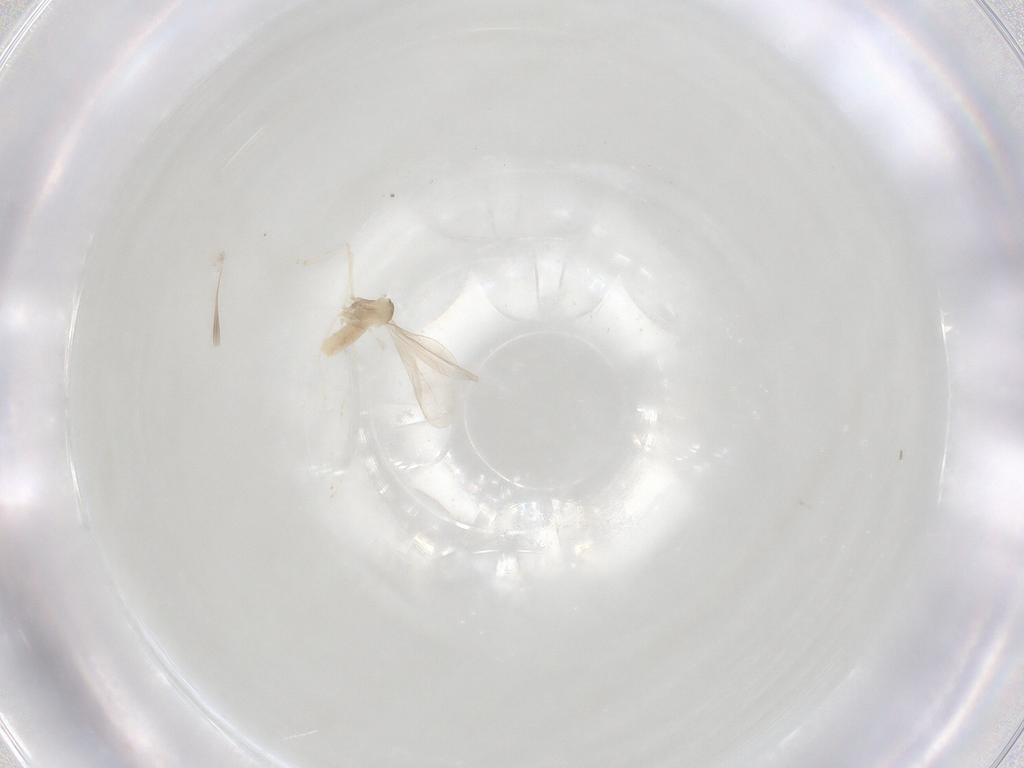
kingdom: Animalia
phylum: Arthropoda
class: Insecta
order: Diptera
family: Cecidomyiidae
